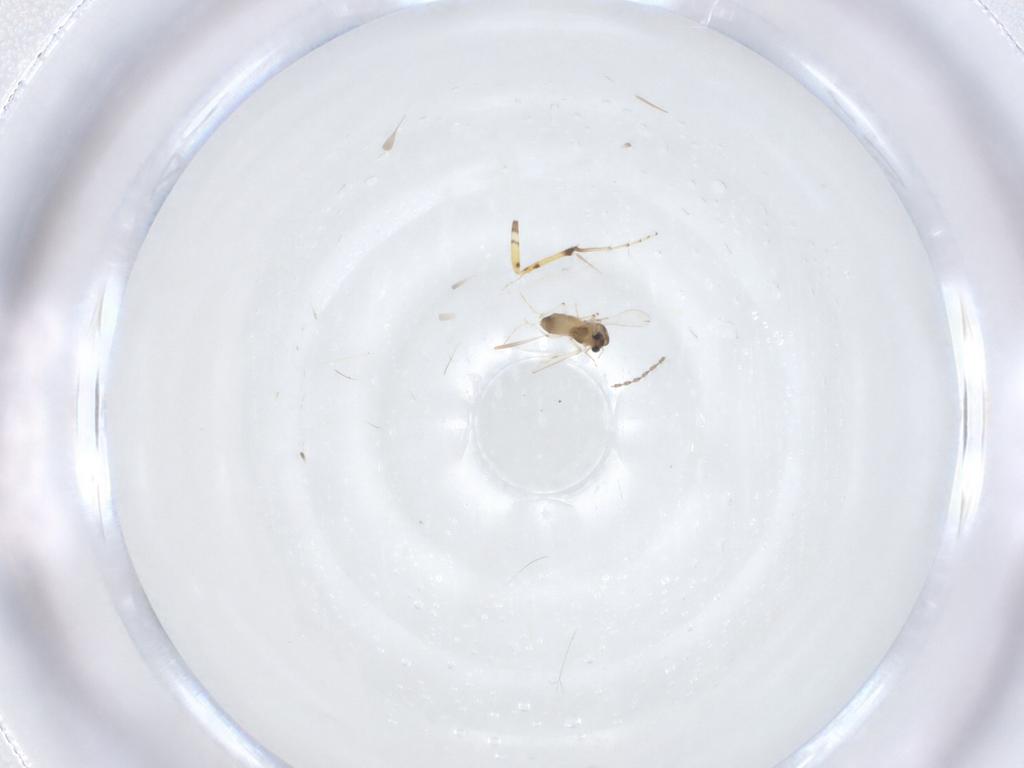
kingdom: Animalia
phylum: Arthropoda
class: Insecta
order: Diptera
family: Chironomidae
